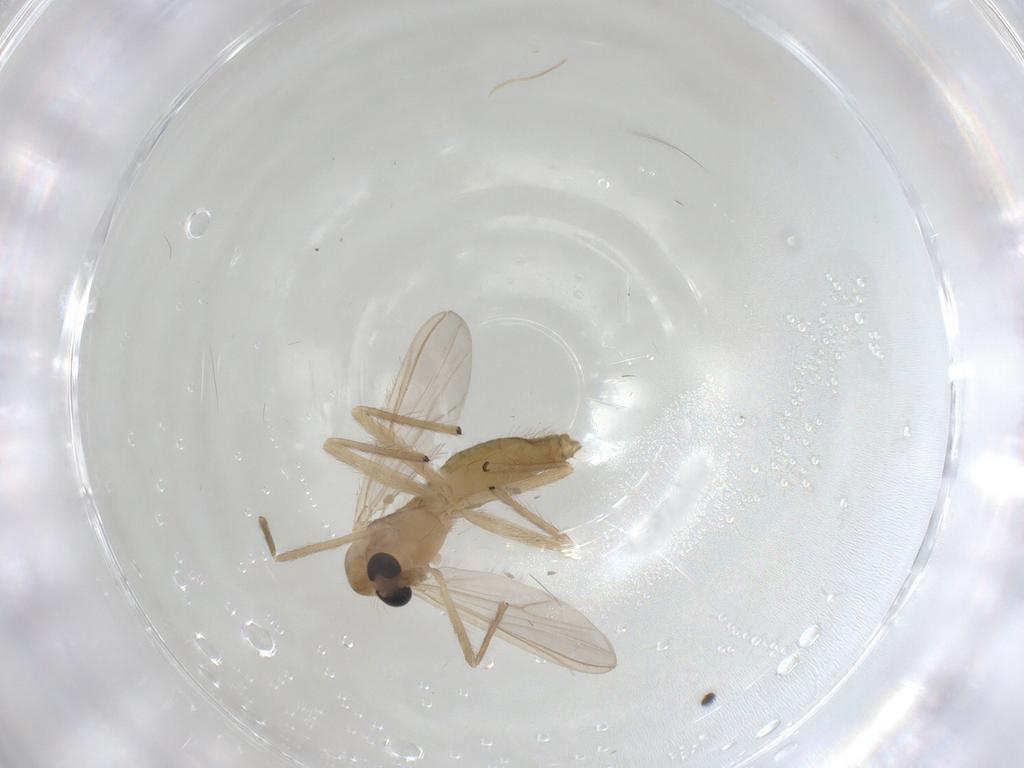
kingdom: Animalia
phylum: Arthropoda
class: Insecta
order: Diptera
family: Chironomidae
